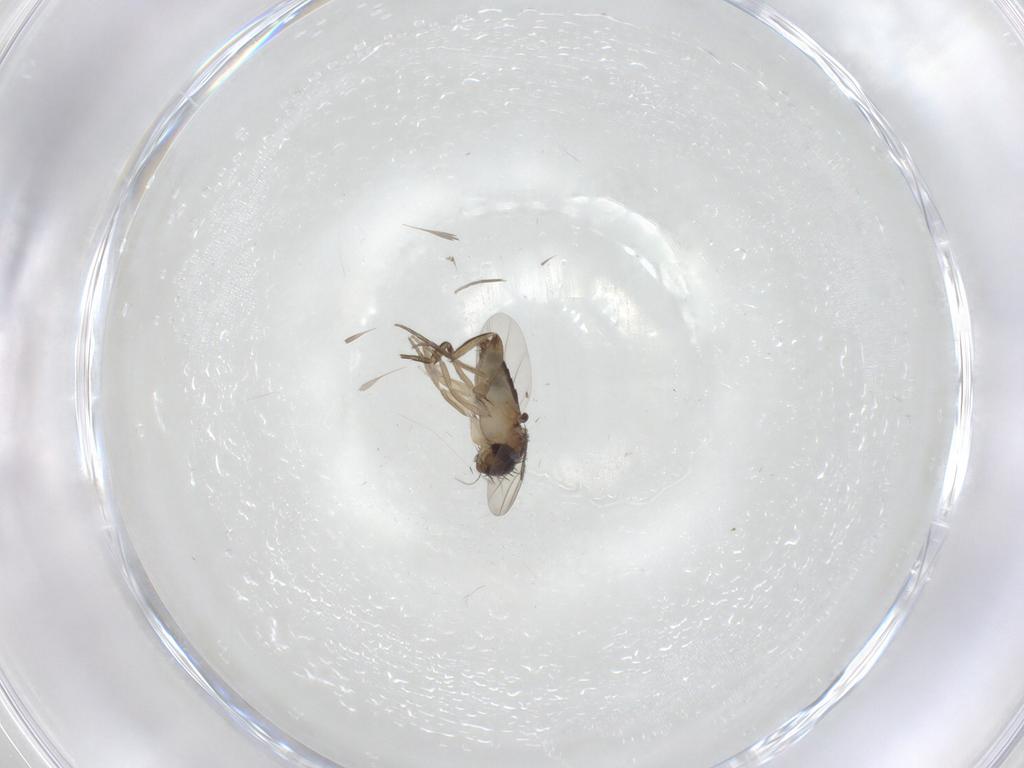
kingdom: Animalia
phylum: Arthropoda
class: Insecta
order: Diptera
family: Phoridae
